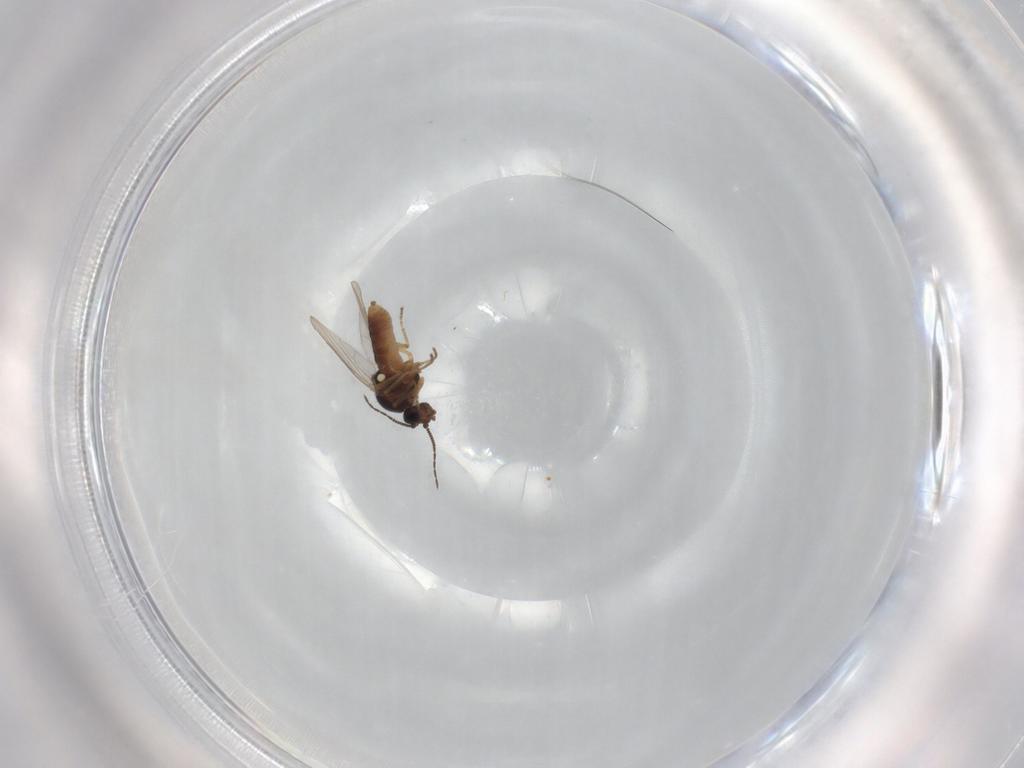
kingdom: Animalia
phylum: Arthropoda
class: Insecta
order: Diptera
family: Ceratopogonidae
